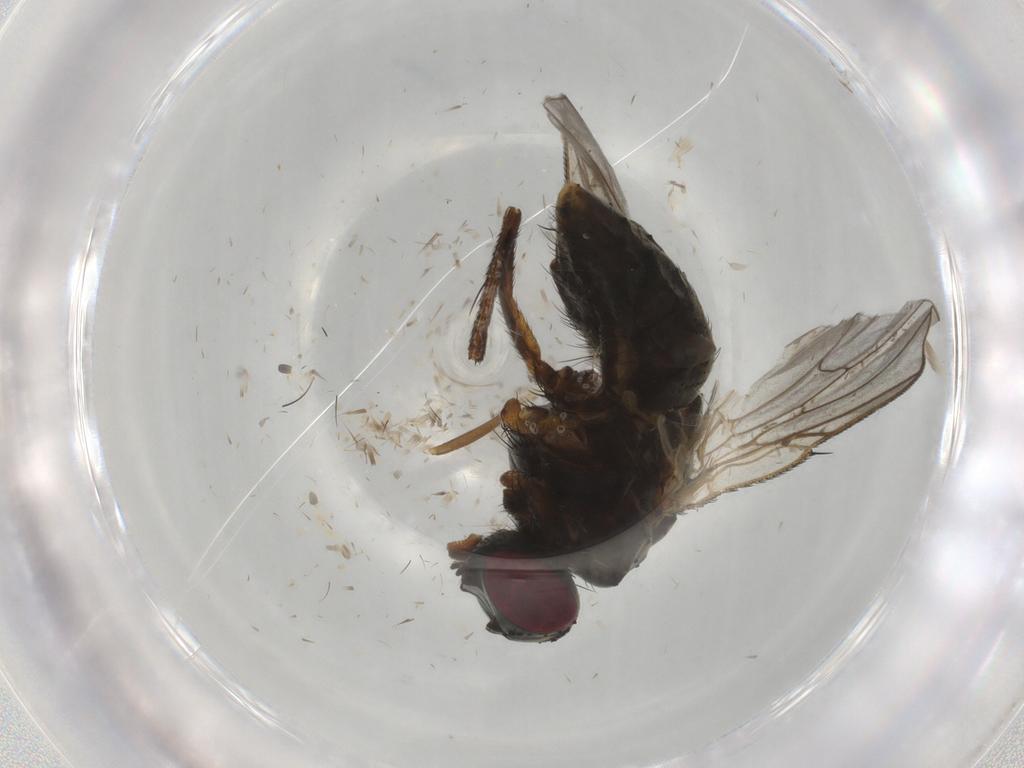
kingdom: Animalia
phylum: Arthropoda
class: Insecta
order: Diptera
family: Muscidae
